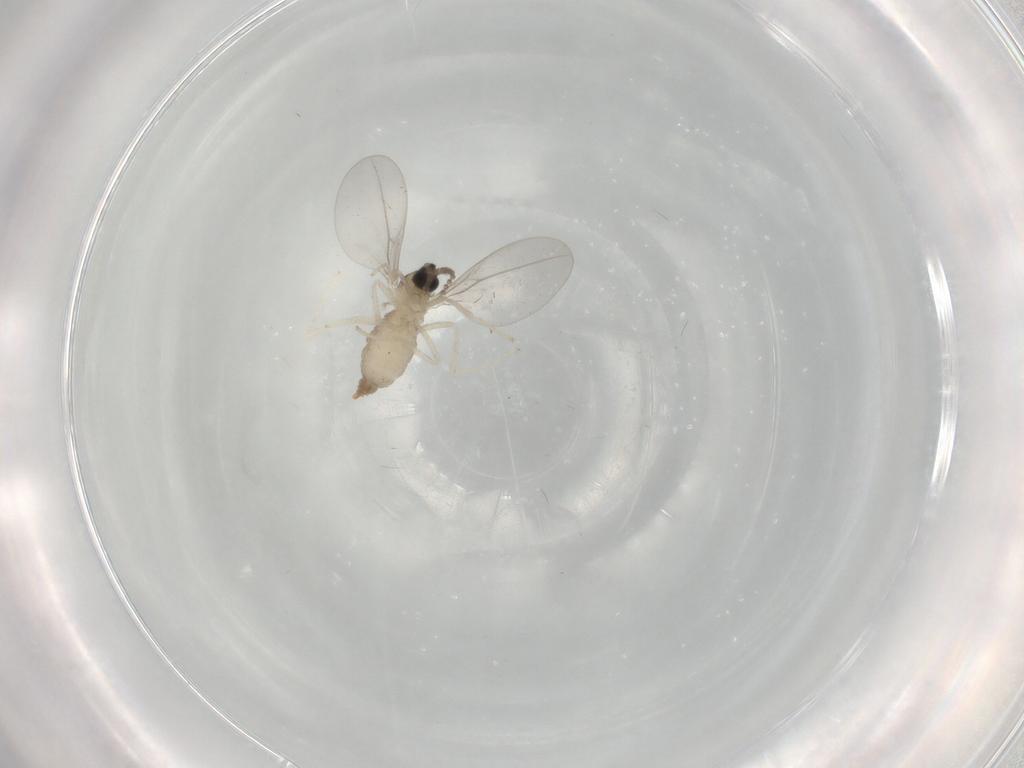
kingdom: Animalia
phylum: Arthropoda
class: Insecta
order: Diptera
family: Cecidomyiidae
